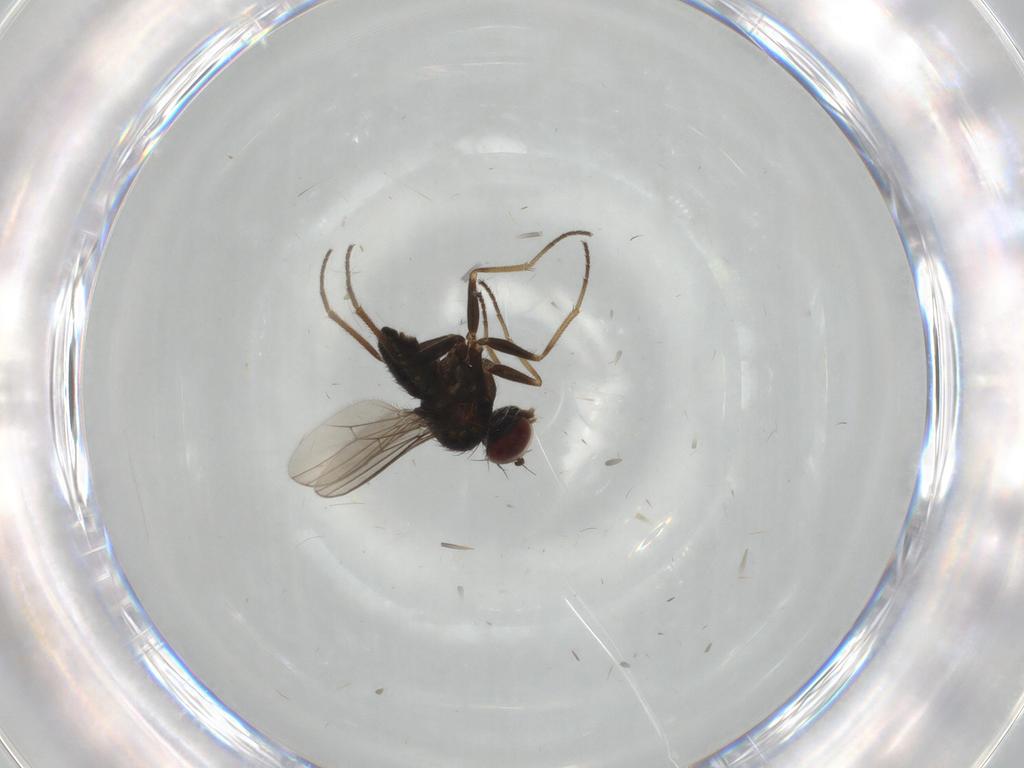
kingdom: Animalia
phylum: Arthropoda
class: Insecta
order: Diptera
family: Dolichopodidae
